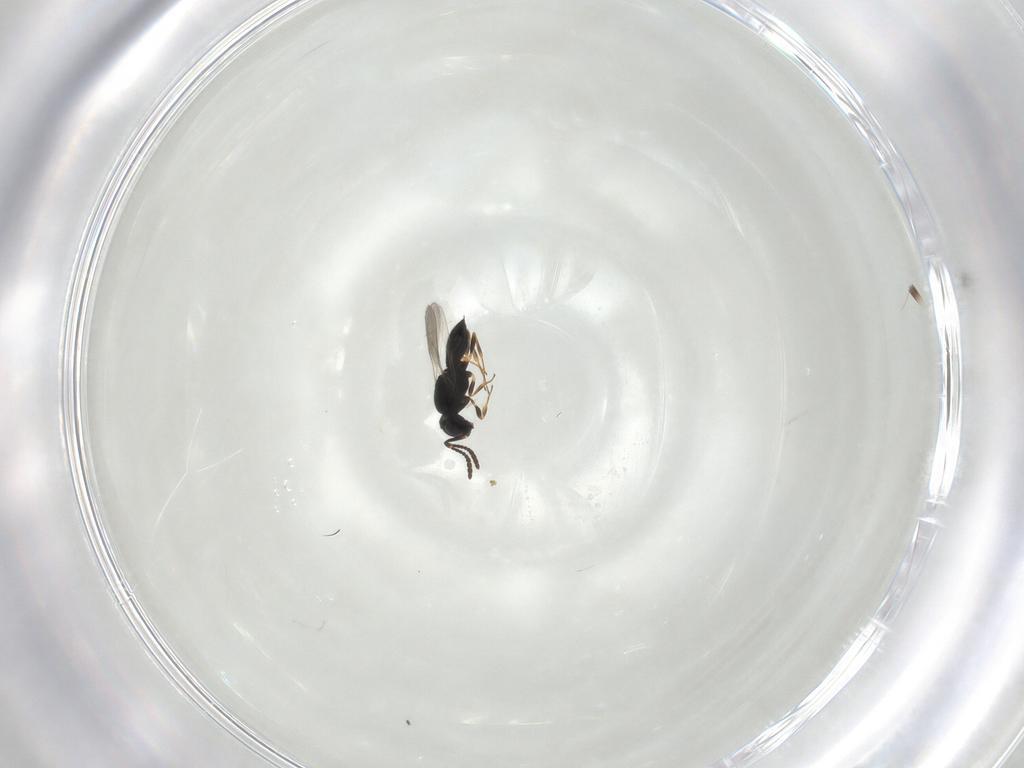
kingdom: Animalia
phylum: Arthropoda
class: Insecta
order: Hymenoptera
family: Scelionidae
